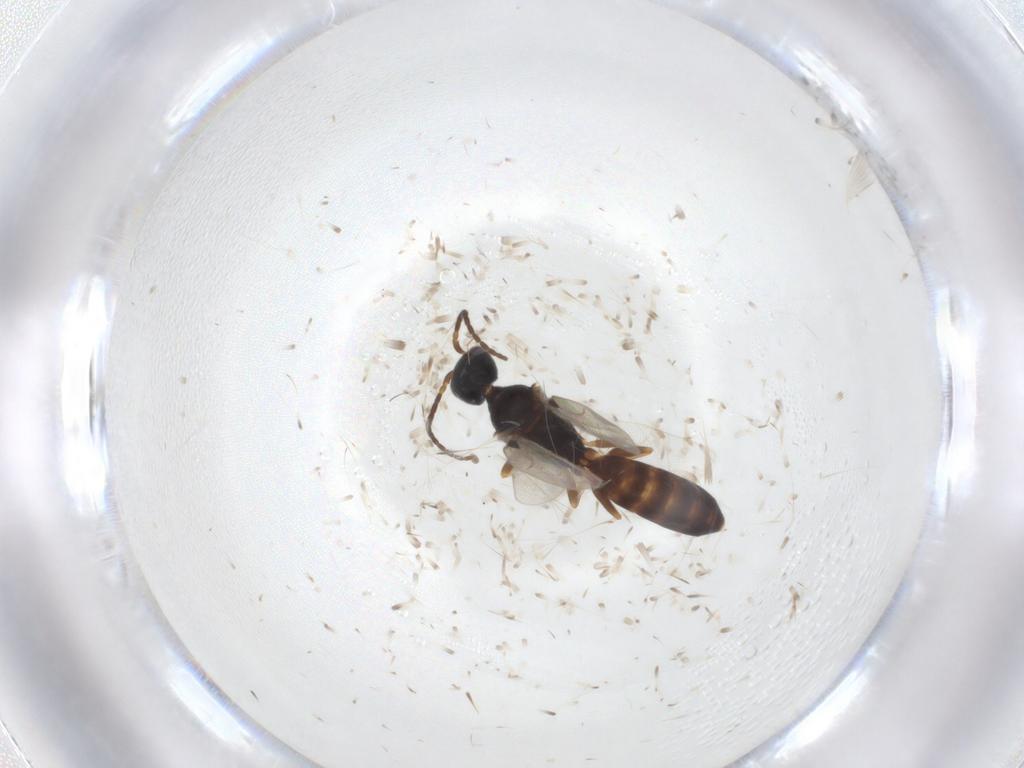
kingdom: Animalia
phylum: Arthropoda
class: Insecta
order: Hymenoptera
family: Bethylidae
